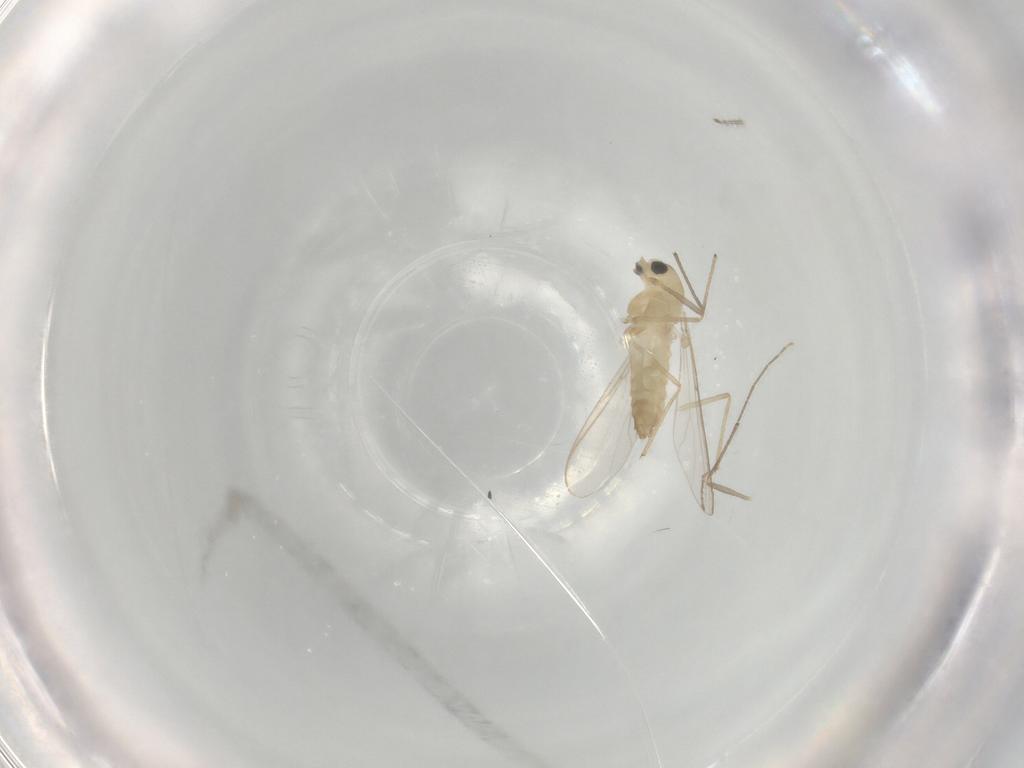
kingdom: Animalia
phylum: Arthropoda
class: Insecta
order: Diptera
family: Chironomidae
